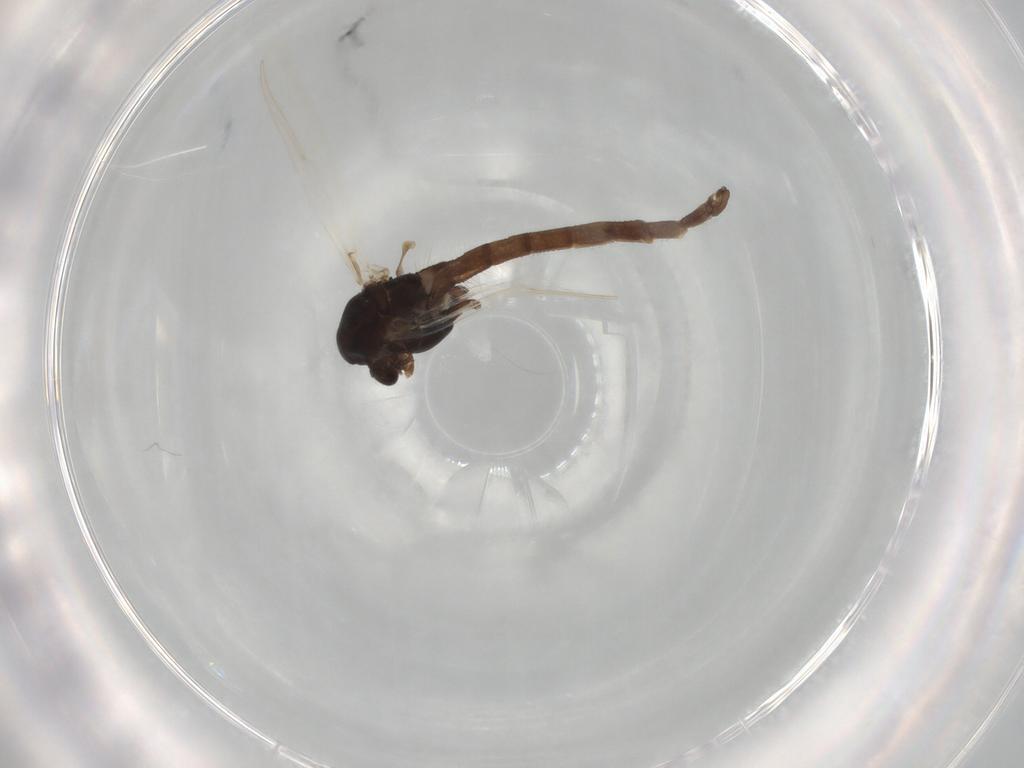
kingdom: Animalia
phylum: Arthropoda
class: Insecta
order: Diptera
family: Chironomidae
